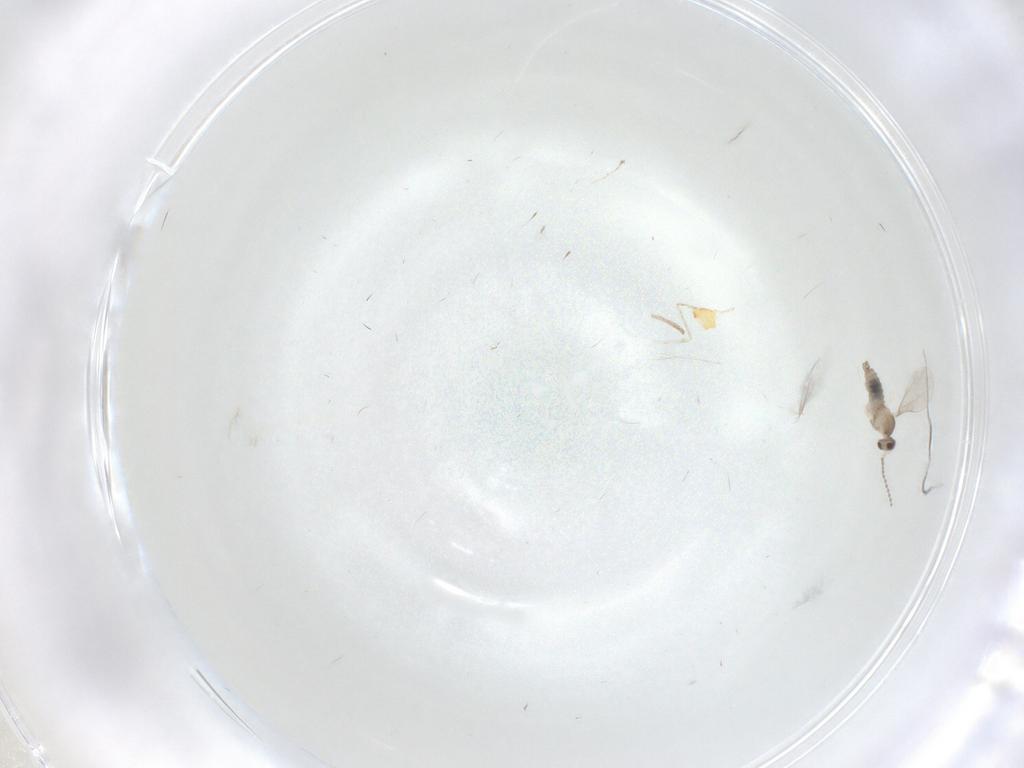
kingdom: Animalia
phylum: Arthropoda
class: Insecta
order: Diptera
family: Cecidomyiidae
